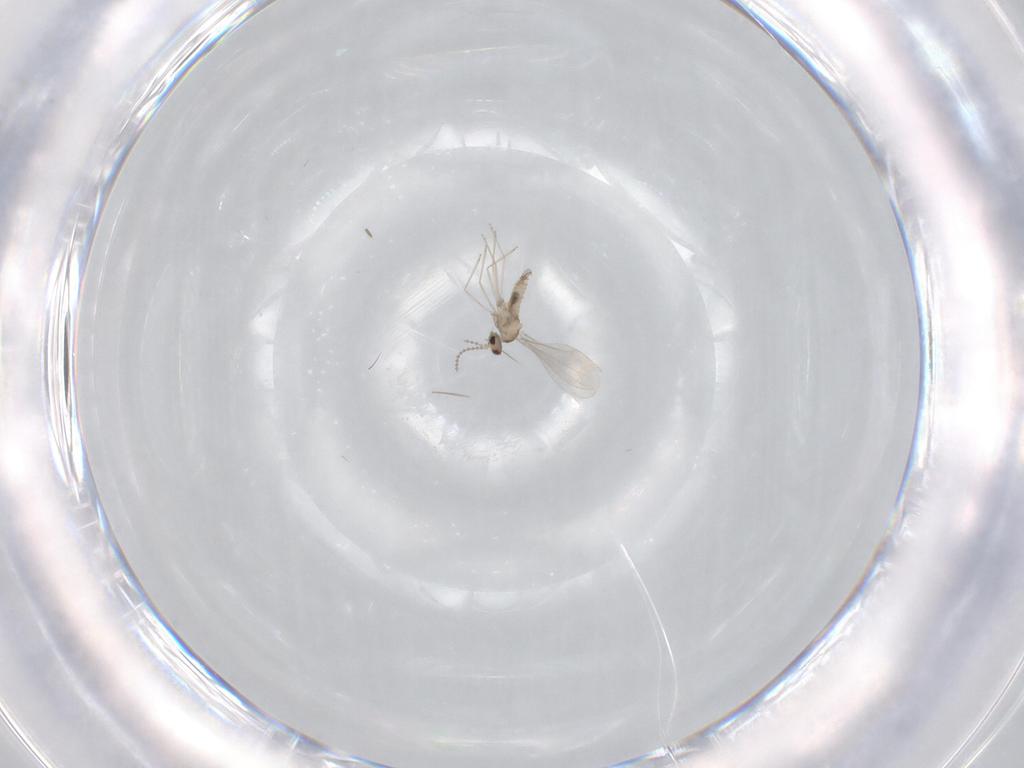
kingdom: Animalia
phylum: Arthropoda
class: Insecta
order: Diptera
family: Cecidomyiidae
